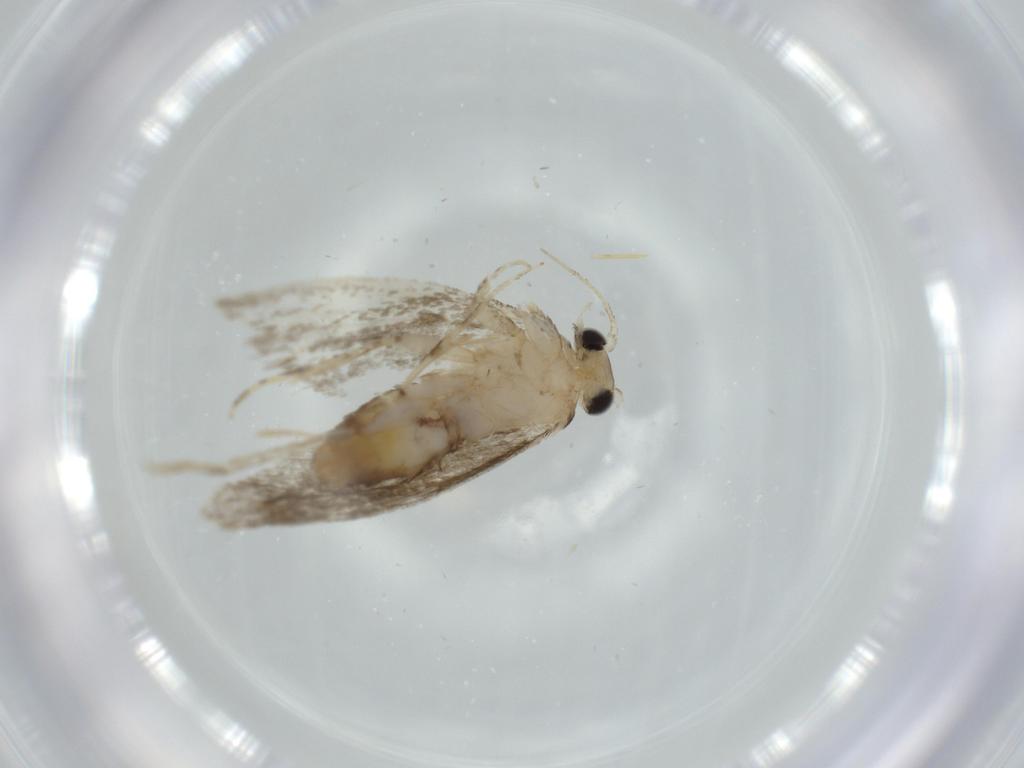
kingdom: Animalia
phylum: Arthropoda
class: Insecta
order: Lepidoptera
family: Tineidae
